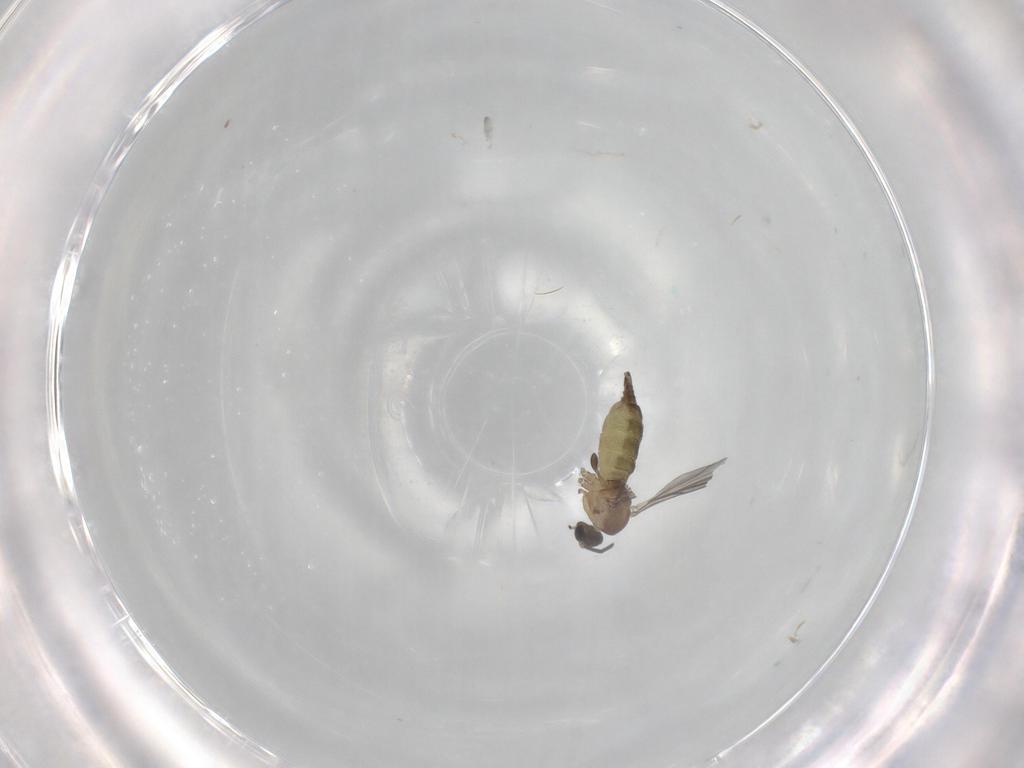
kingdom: Animalia
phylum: Arthropoda
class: Insecta
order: Diptera
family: Sciaridae
